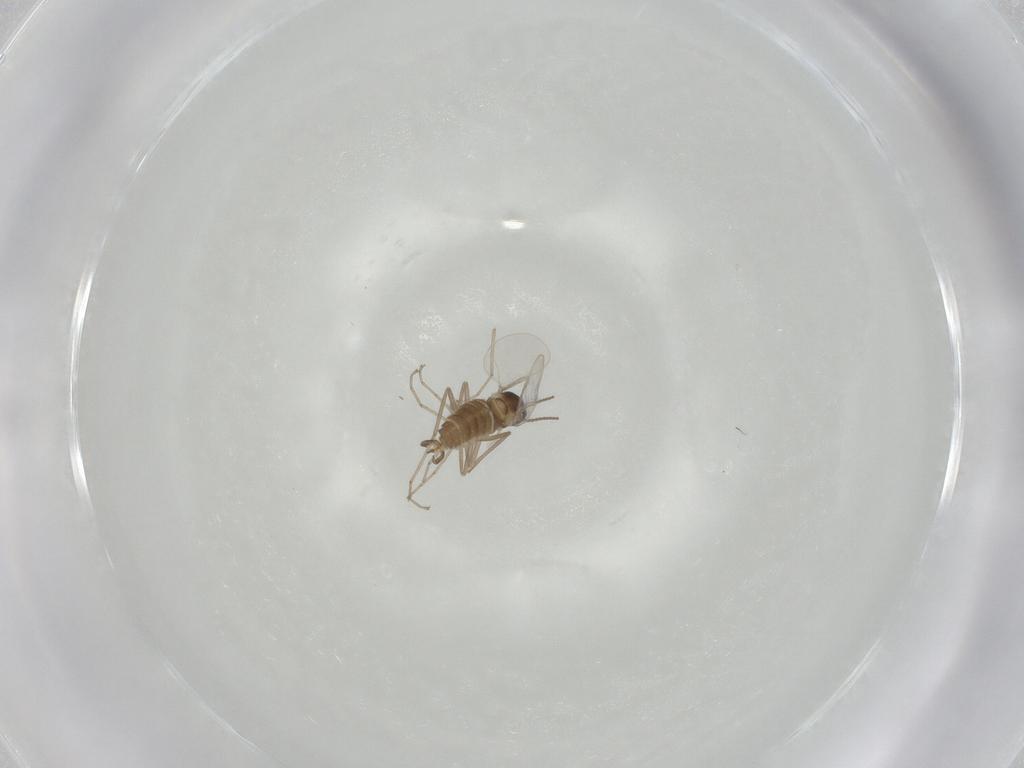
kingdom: Animalia
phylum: Arthropoda
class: Insecta
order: Diptera
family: Cecidomyiidae
